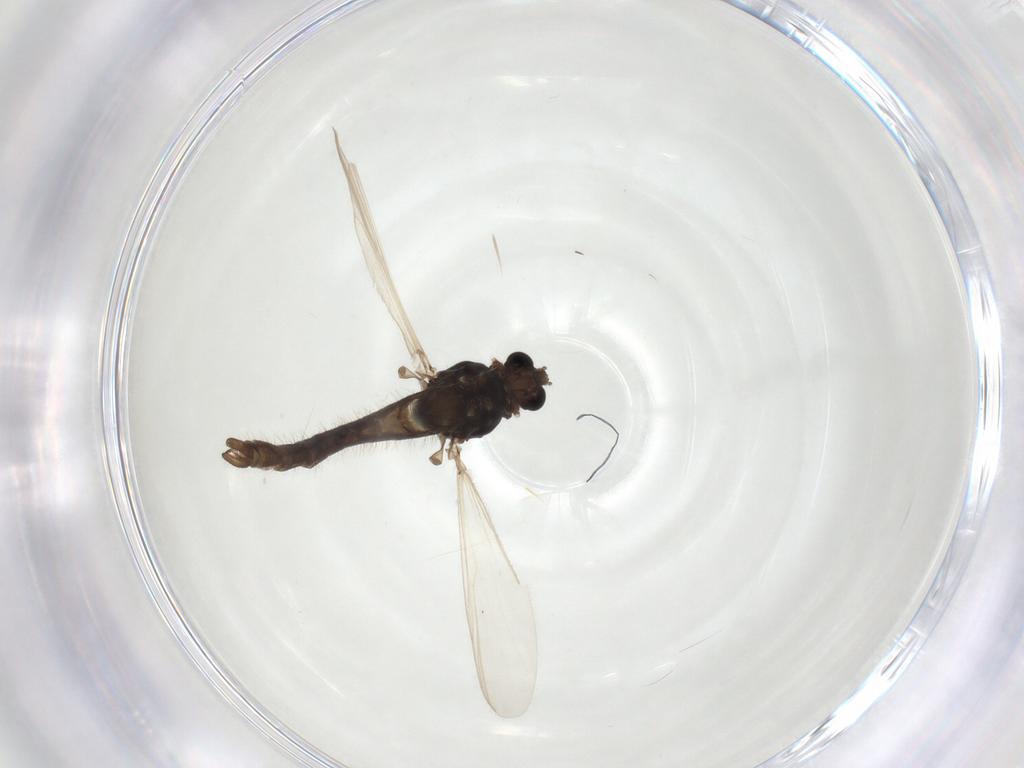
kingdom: Animalia
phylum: Arthropoda
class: Insecta
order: Diptera
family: Chironomidae
